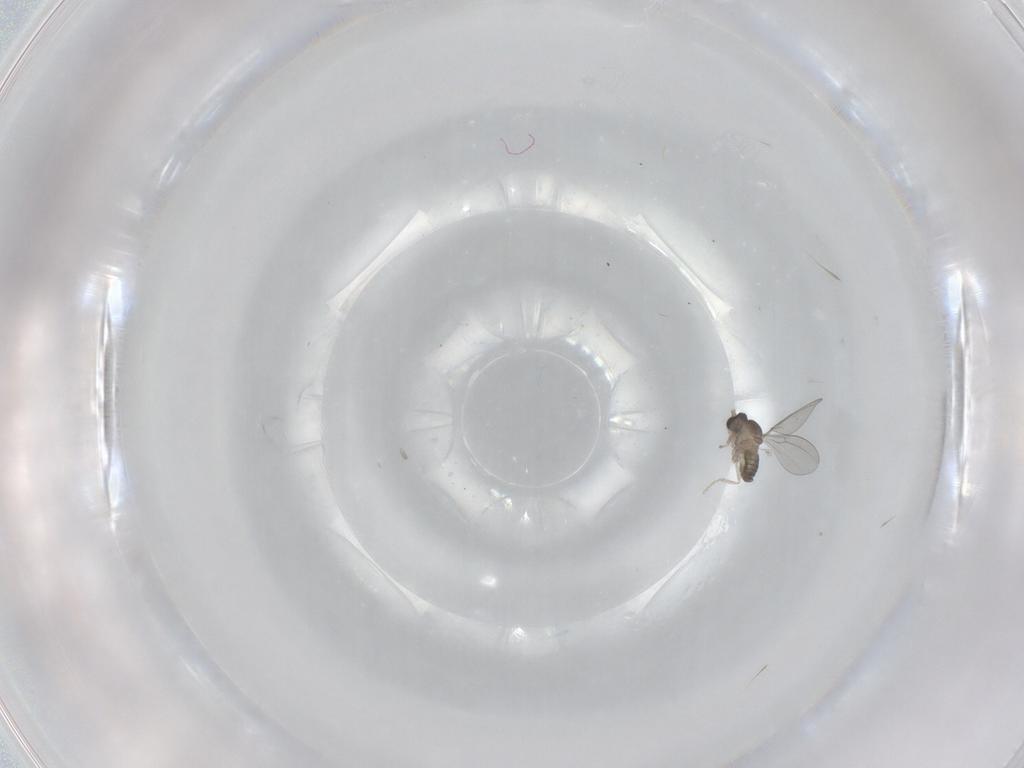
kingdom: Animalia
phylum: Arthropoda
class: Insecta
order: Diptera
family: Cecidomyiidae
